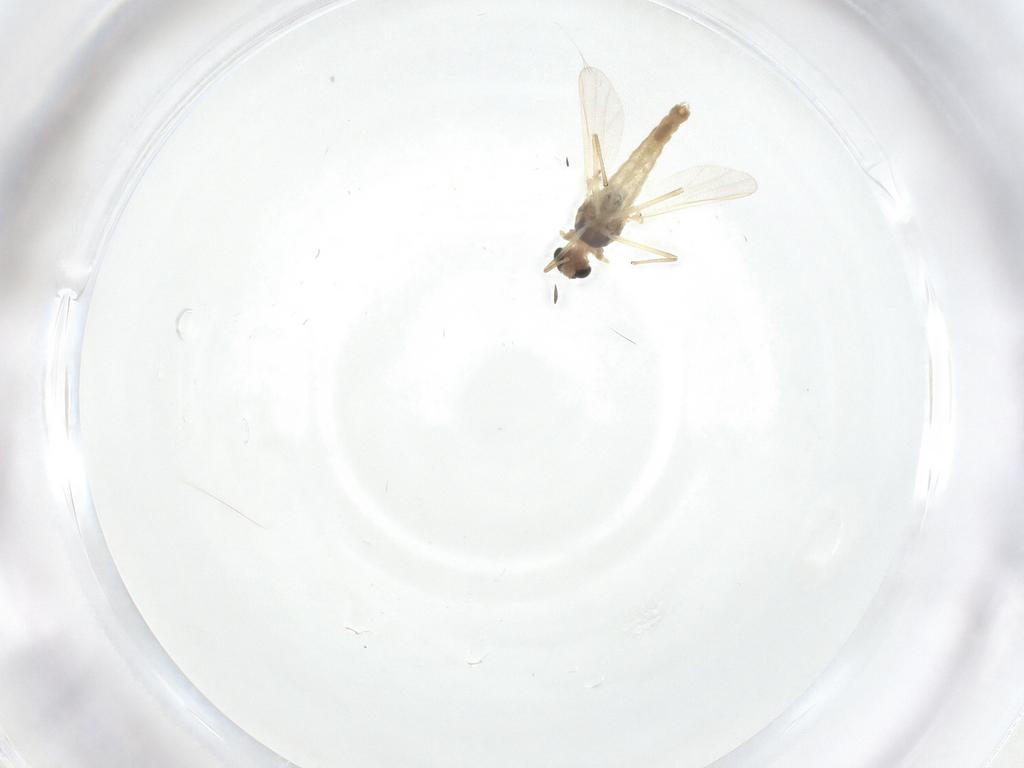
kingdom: Animalia
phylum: Arthropoda
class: Insecta
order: Diptera
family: Chironomidae
